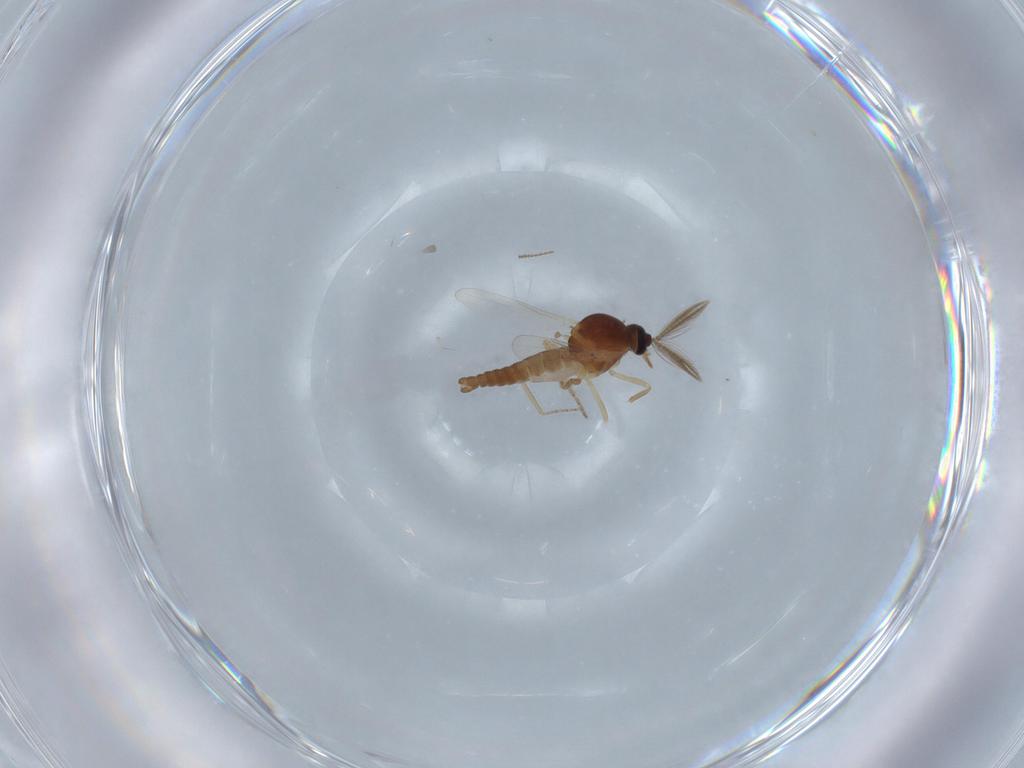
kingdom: Animalia
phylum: Arthropoda
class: Insecta
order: Diptera
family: Ceratopogonidae
